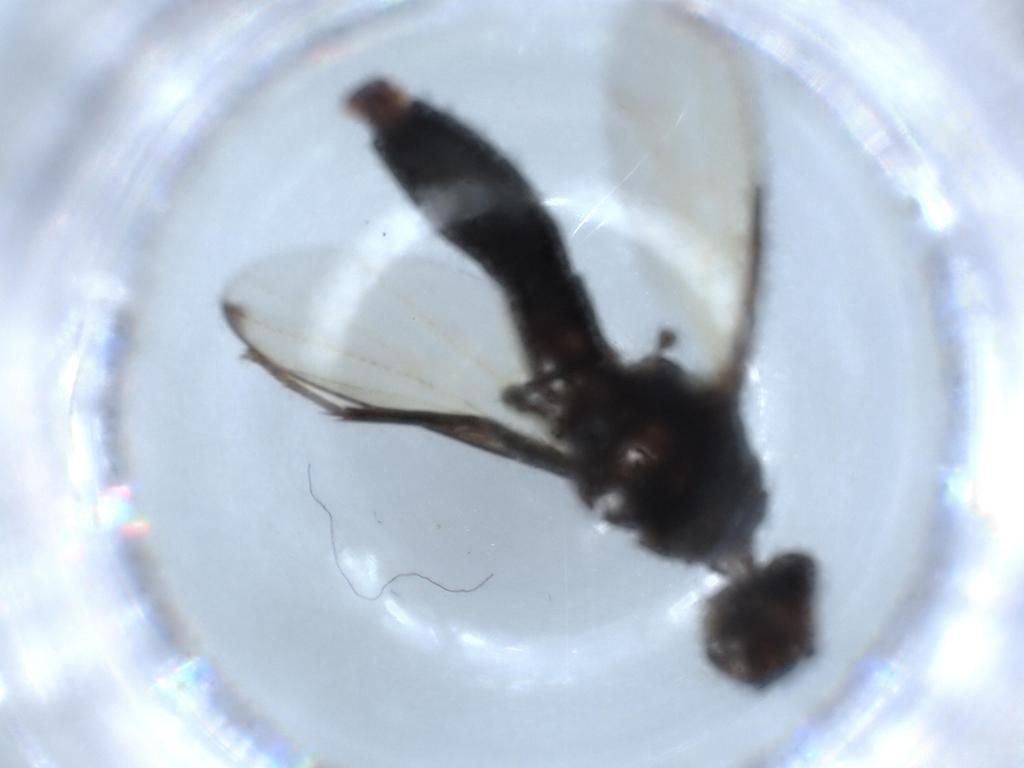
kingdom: Animalia
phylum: Arthropoda
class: Insecta
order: Diptera
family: Platystomatidae
